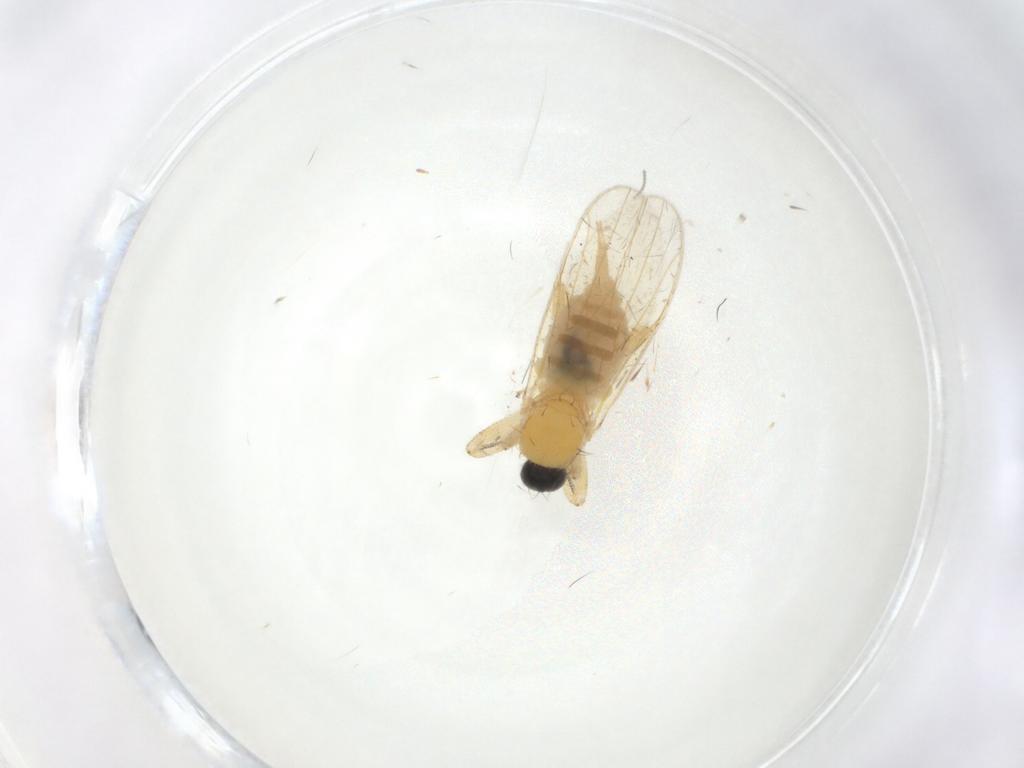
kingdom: Animalia
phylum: Arthropoda
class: Insecta
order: Diptera
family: Cecidomyiidae
